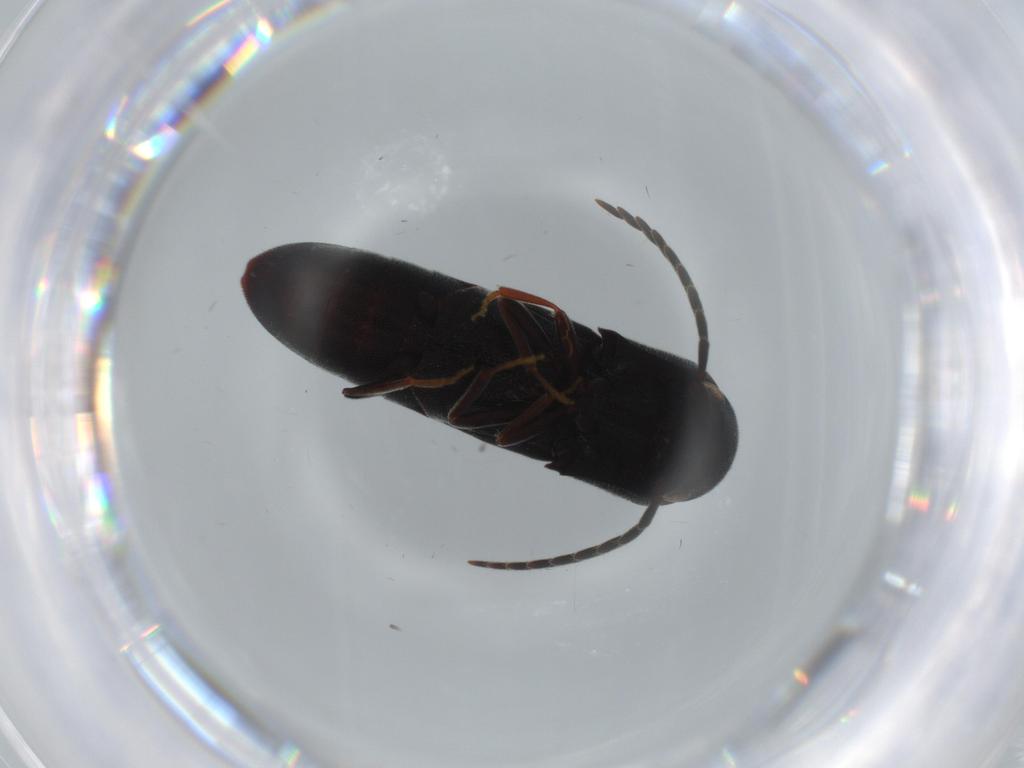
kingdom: Animalia
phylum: Arthropoda
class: Insecta
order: Coleoptera
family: Eucnemidae
